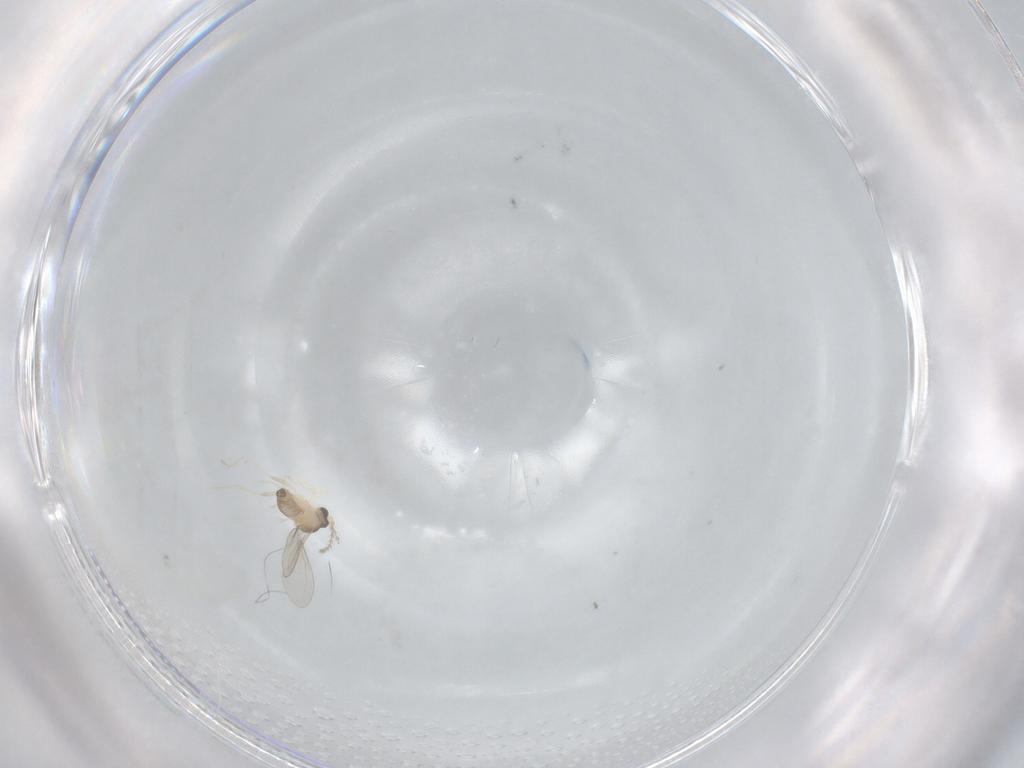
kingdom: Animalia
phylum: Arthropoda
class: Insecta
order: Diptera
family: Cecidomyiidae
